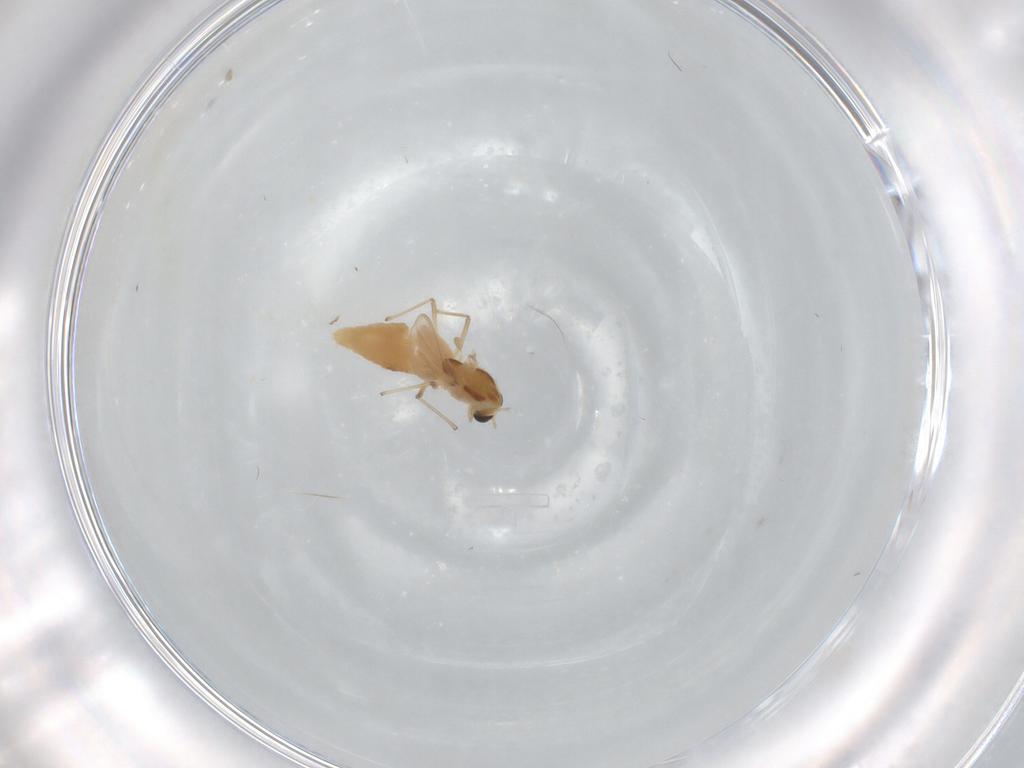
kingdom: Animalia
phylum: Arthropoda
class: Insecta
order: Diptera
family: Chironomidae
